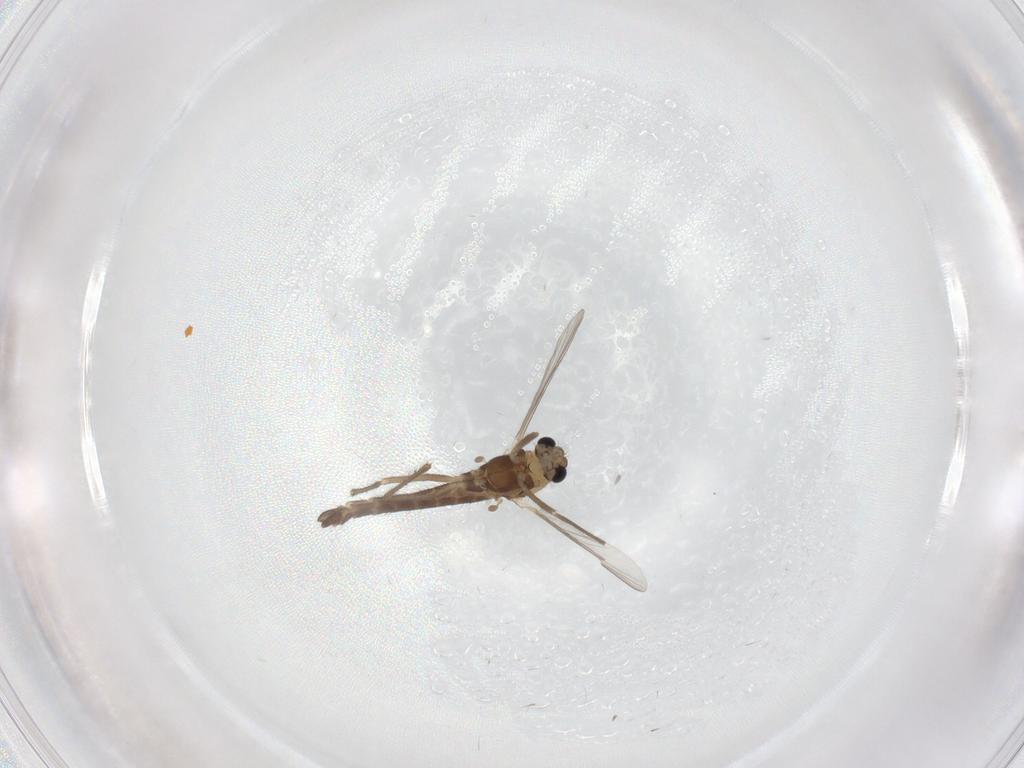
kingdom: Animalia
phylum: Arthropoda
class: Insecta
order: Diptera
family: Chironomidae
